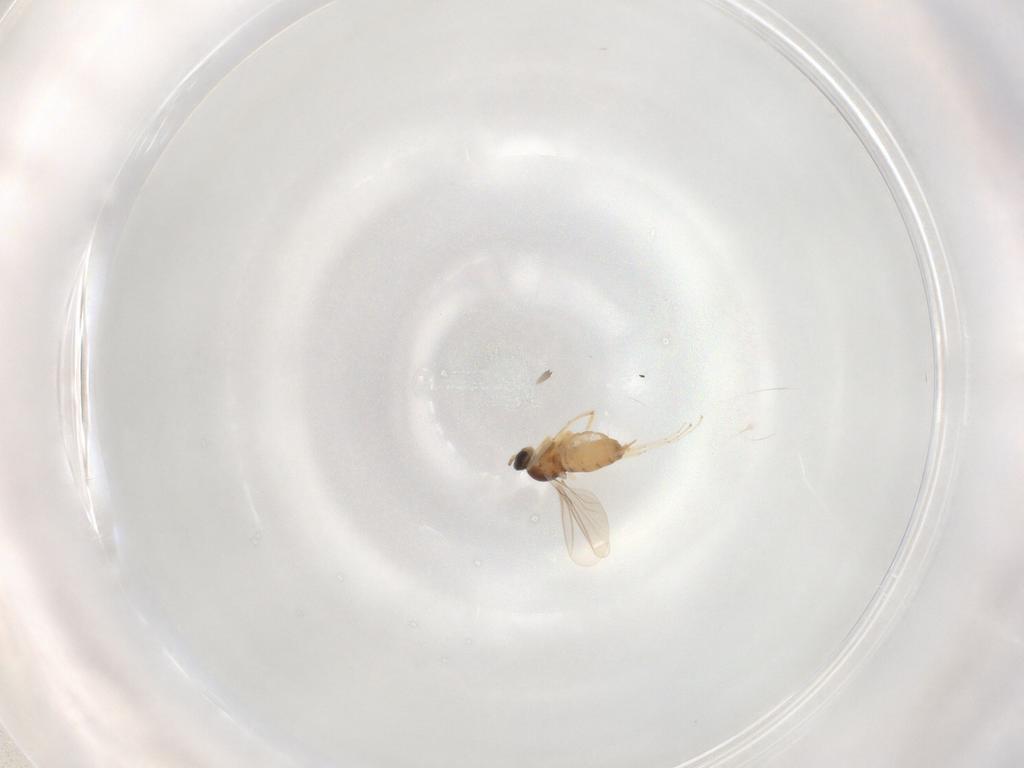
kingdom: Animalia
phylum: Arthropoda
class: Insecta
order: Diptera
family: Cecidomyiidae
